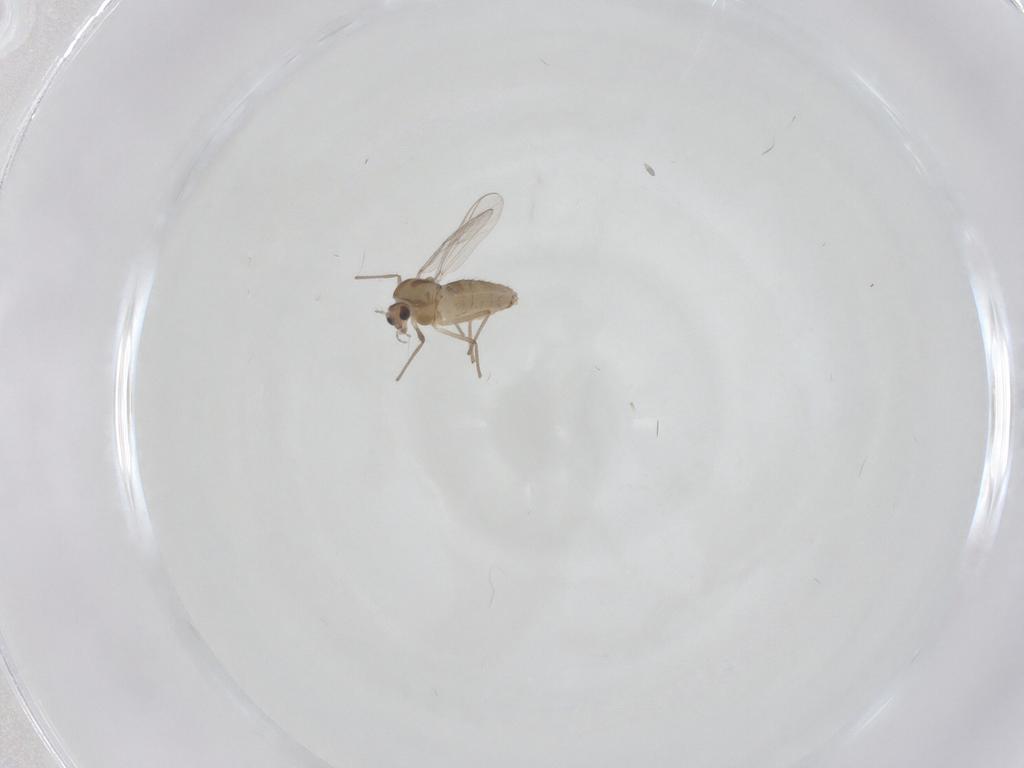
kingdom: Animalia
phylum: Arthropoda
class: Insecta
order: Diptera
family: Chironomidae
